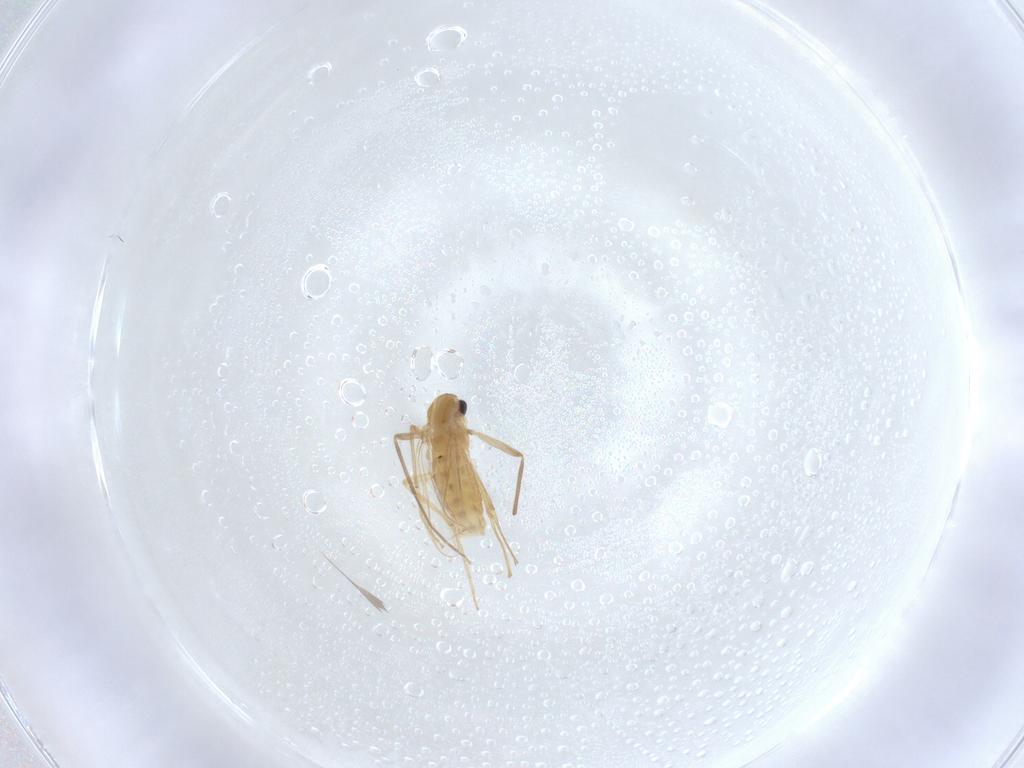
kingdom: Animalia
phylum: Arthropoda
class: Insecta
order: Diptera
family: Chironomidae
